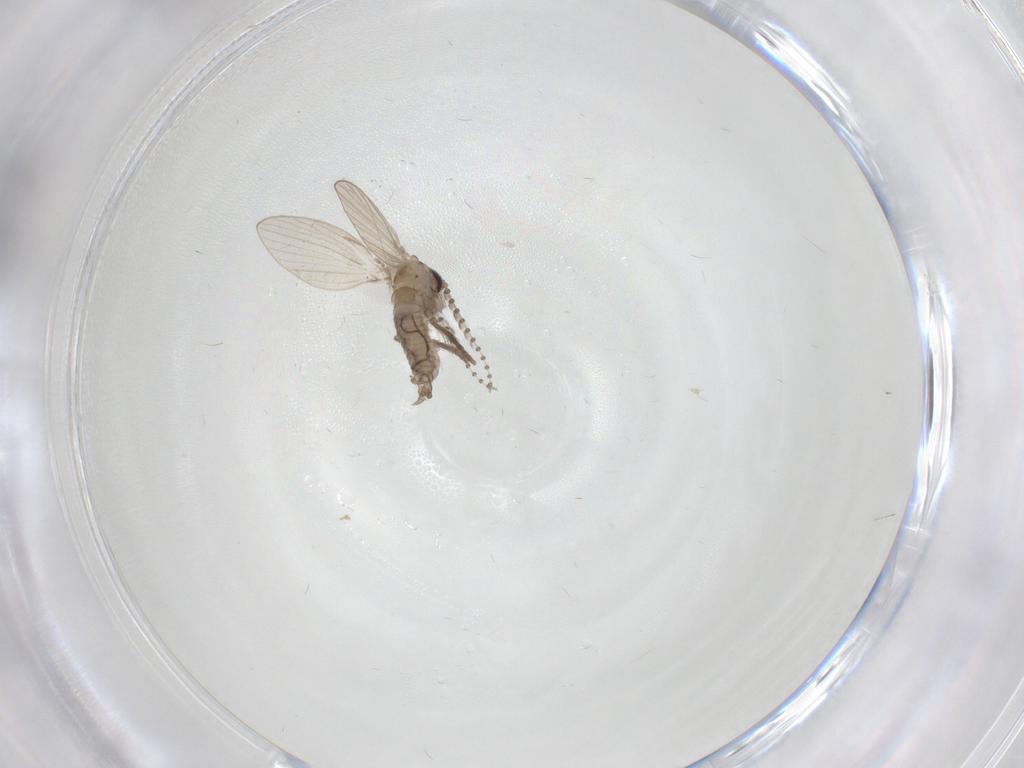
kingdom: Animalia
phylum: Arthropoda
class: Insecta
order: Diptera
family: Psychodidae
